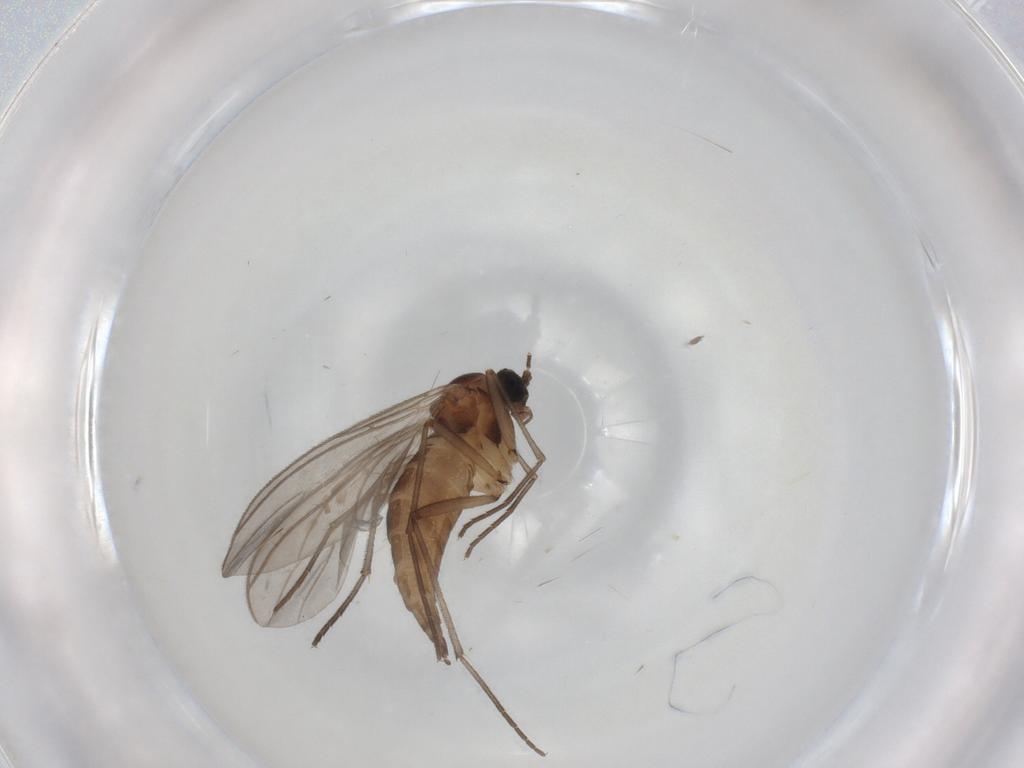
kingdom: Animalia
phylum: Arthropoda
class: Insecta
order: Diptera
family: Sciaridae
